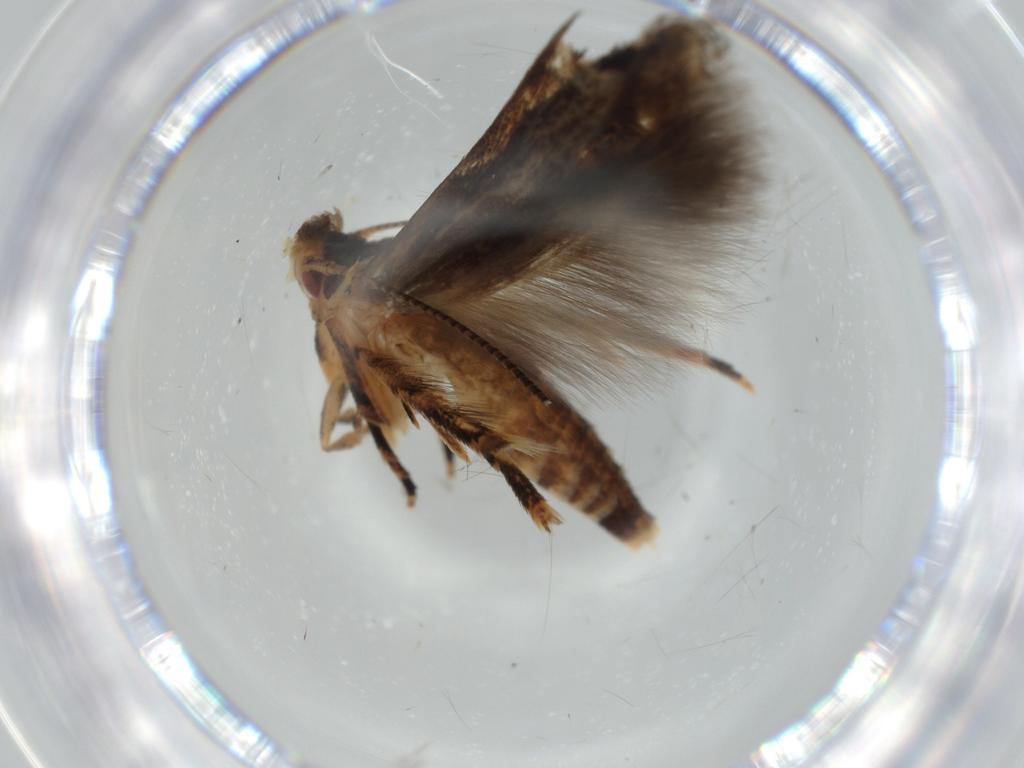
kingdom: Animalia
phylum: Arthropoda
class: Insecta
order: Lepidoptera
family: Tineidae
